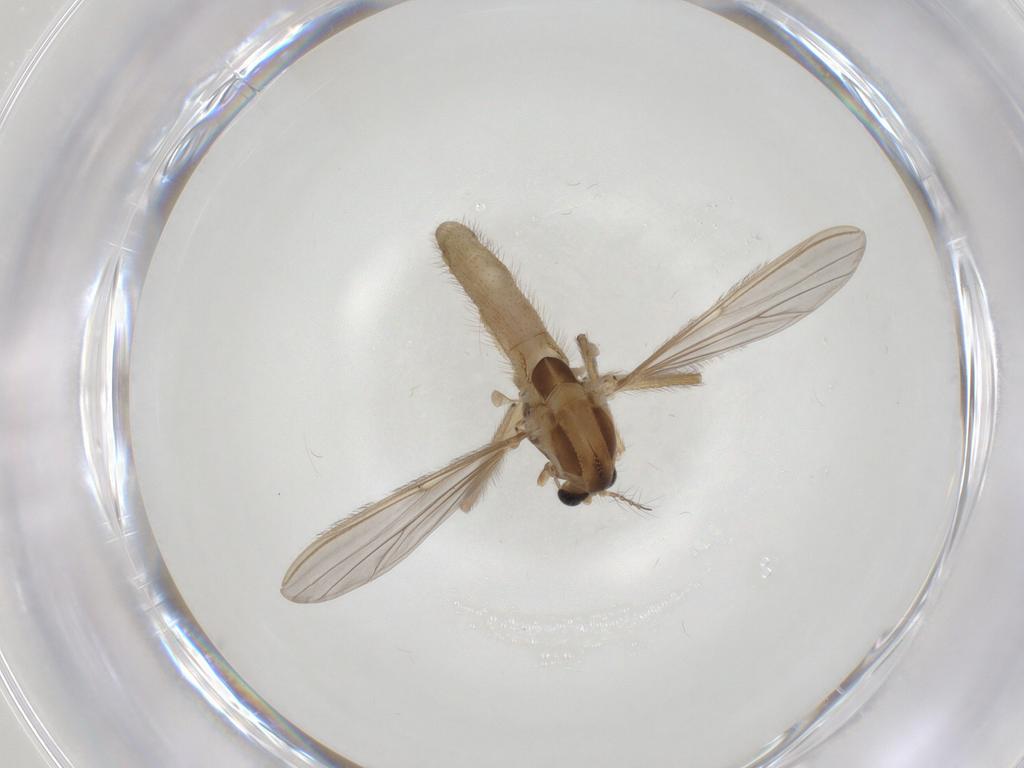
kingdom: Animalia
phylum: Arthropoda
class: Insecta
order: Diptera
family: Chironomidae
